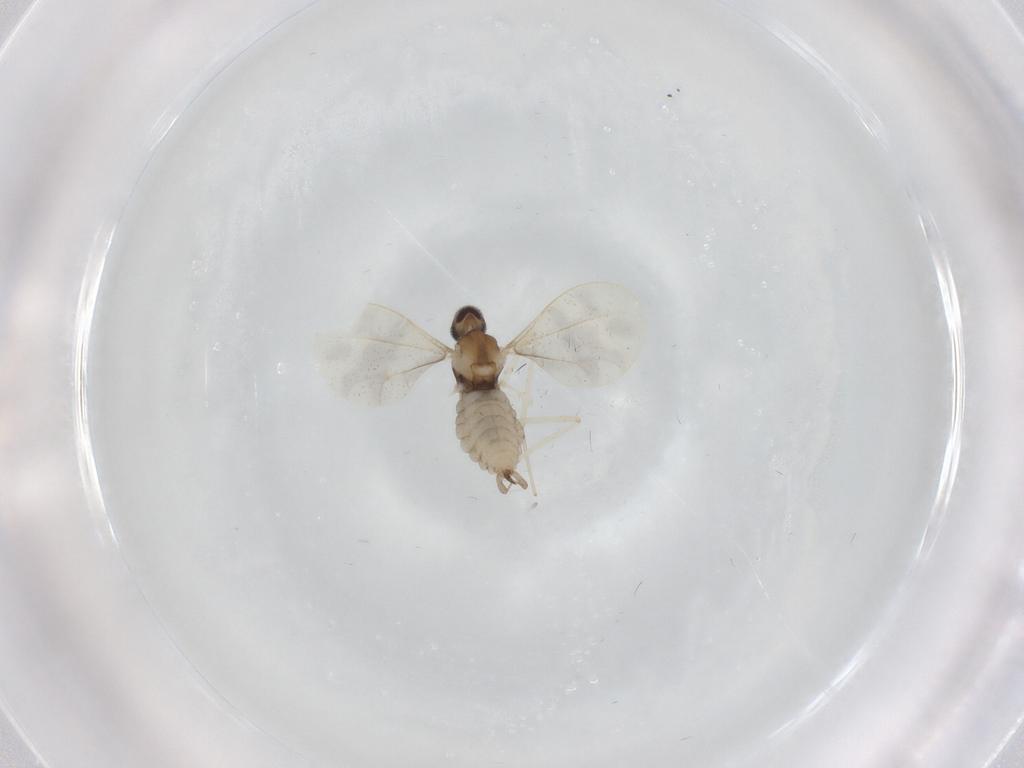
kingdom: Animalia
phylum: Arthropoda
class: Insecta
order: Diptera
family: Cecidomyiidae
